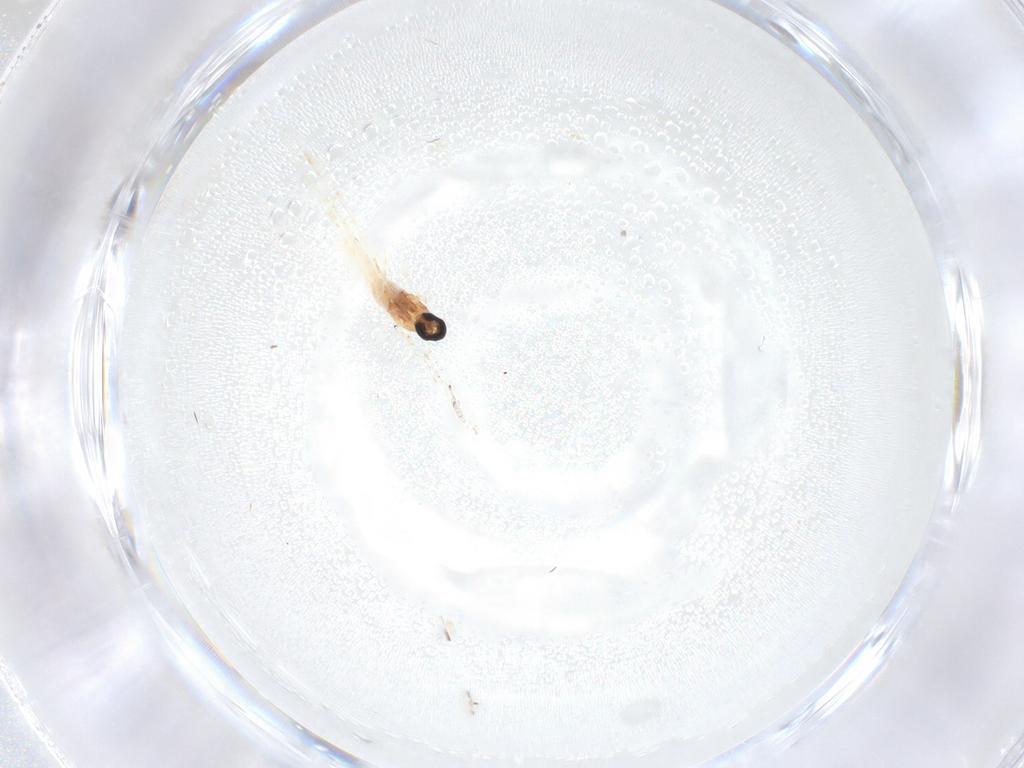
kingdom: Animalia
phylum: Arthropoda
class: Insecta
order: Diptera
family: Cecidomyiidae
